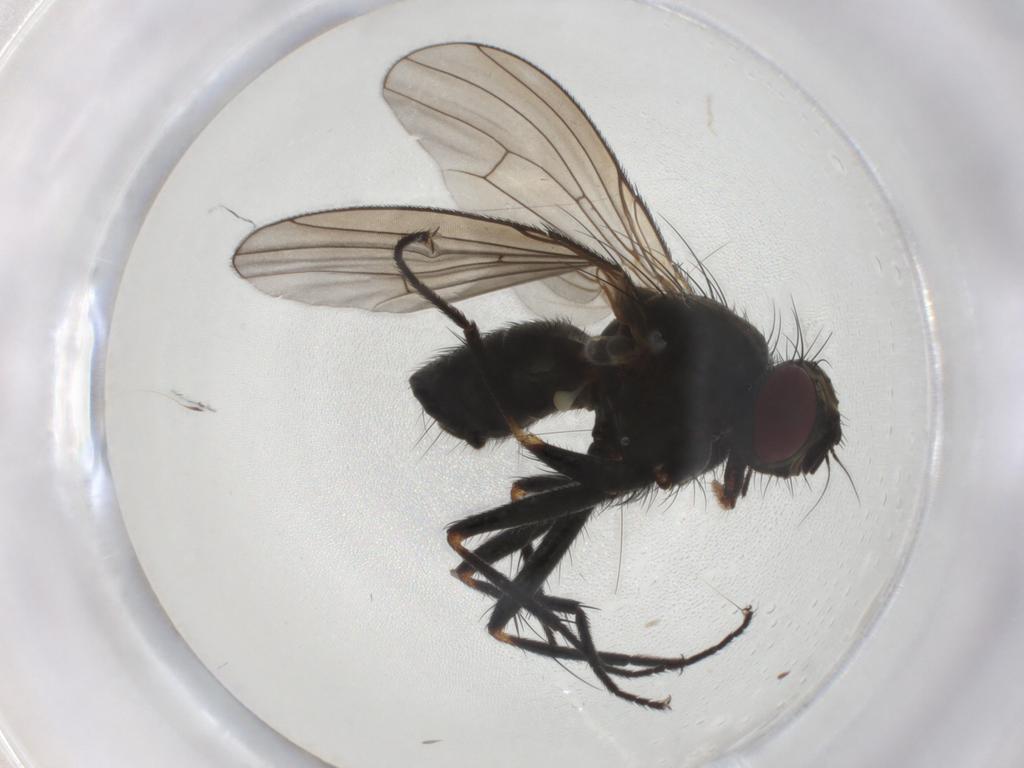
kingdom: Animalia
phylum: Arthropoda
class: Insecta
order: Diptera
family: Muscidae
